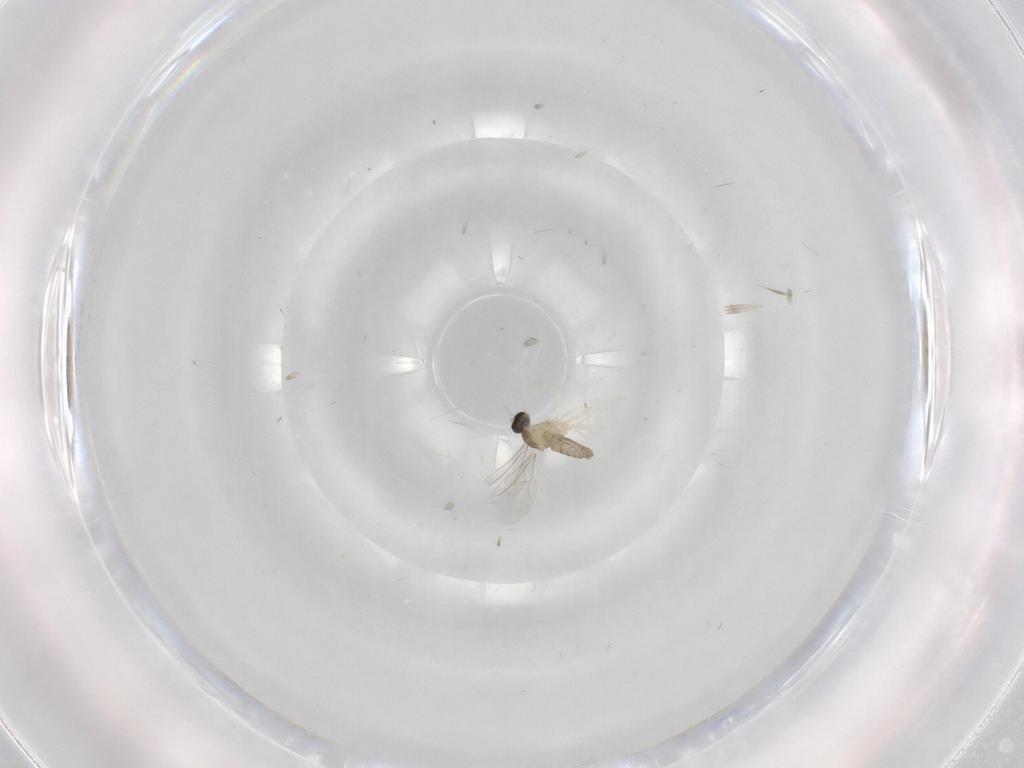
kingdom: Animalia
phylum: Arthropoda
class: Insecta
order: Diptera
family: Phoridae
